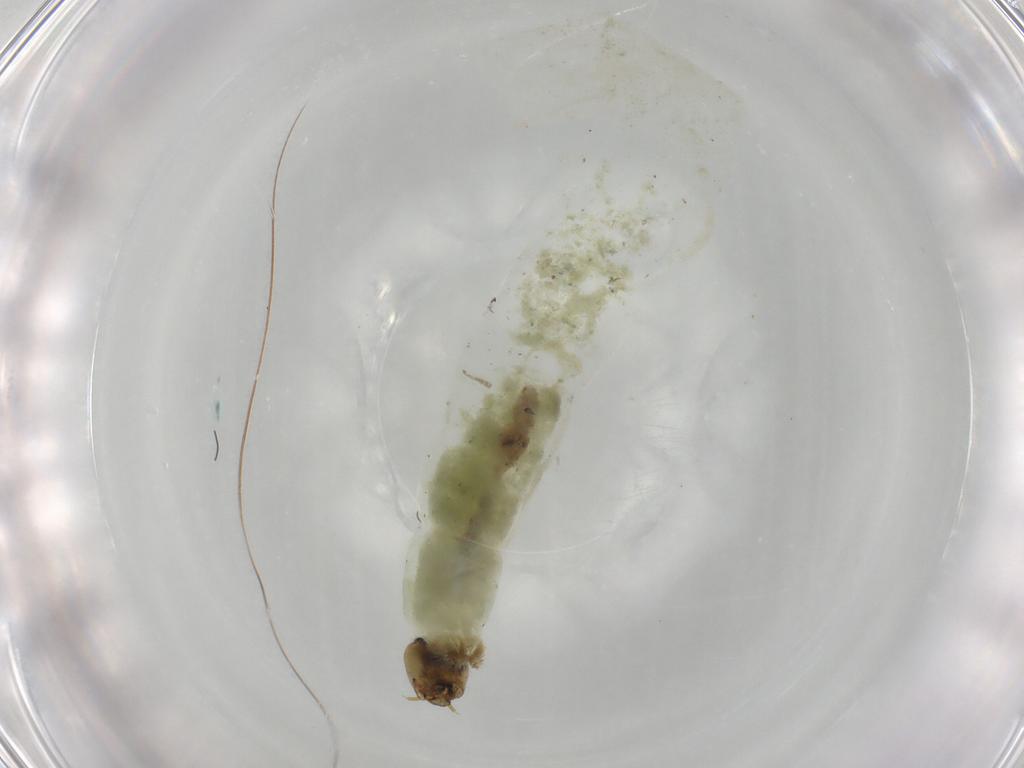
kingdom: Animalia
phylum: Arthropoda
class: Insecta
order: Diptera
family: Chironomidae
